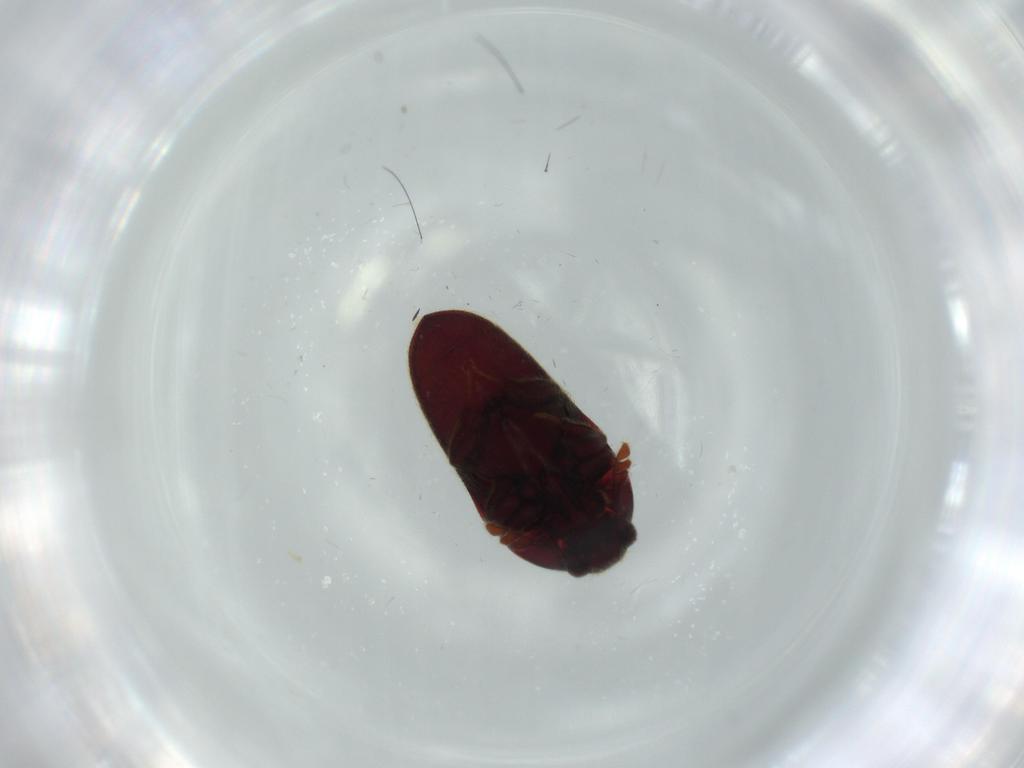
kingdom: Animalia
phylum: Arthropoda
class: Insecta
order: Coleoptera
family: Throscidae
